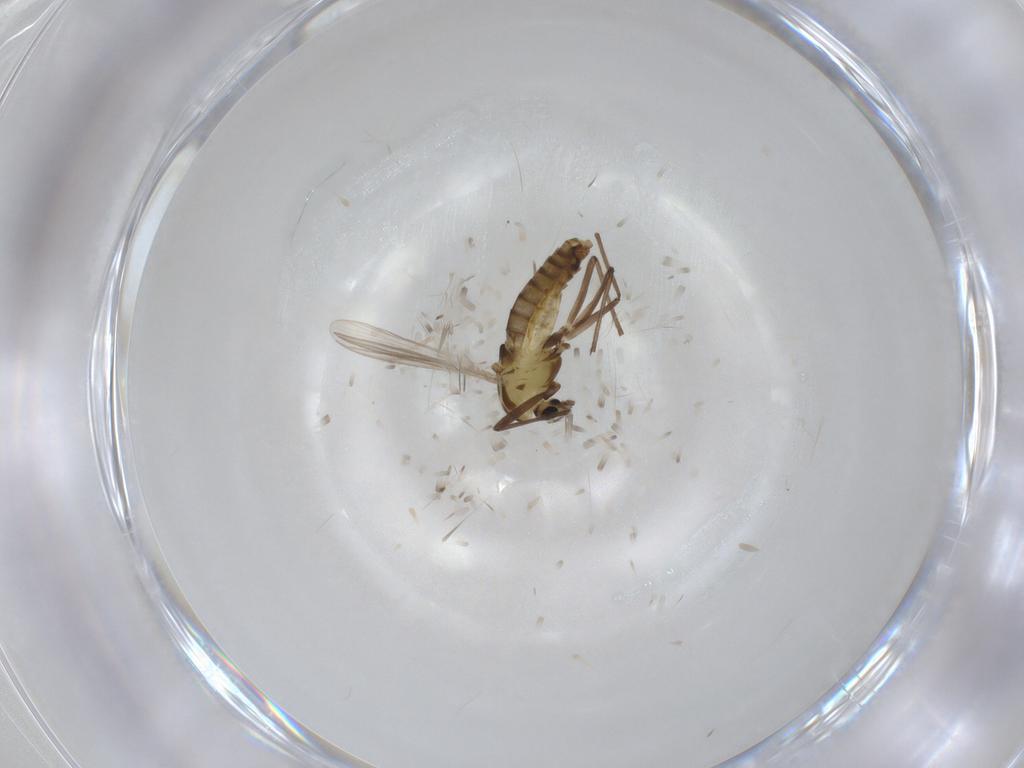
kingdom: Animalia
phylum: Arthropoda
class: Insecta
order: Diptera
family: Chironomidae
